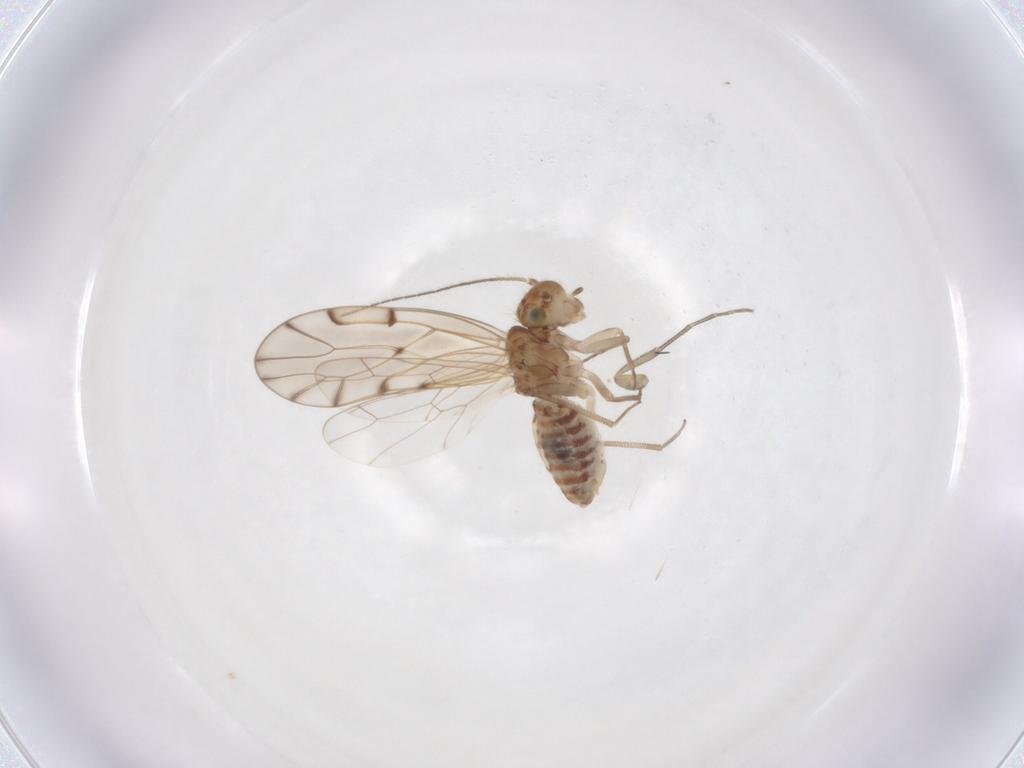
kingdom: Animalia
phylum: Arthropoda
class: Insecta
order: Diptera
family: Phoridae
